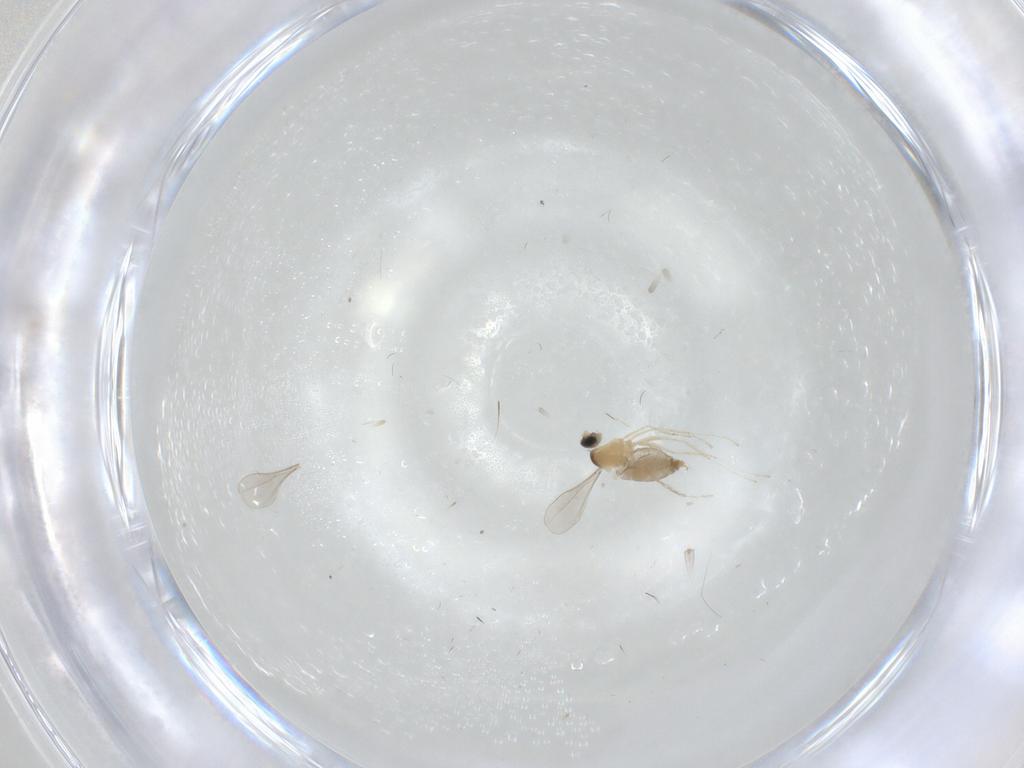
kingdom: Animalia
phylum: Arthropoda
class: Insecta
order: Diptera
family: Cecidomyiidae
